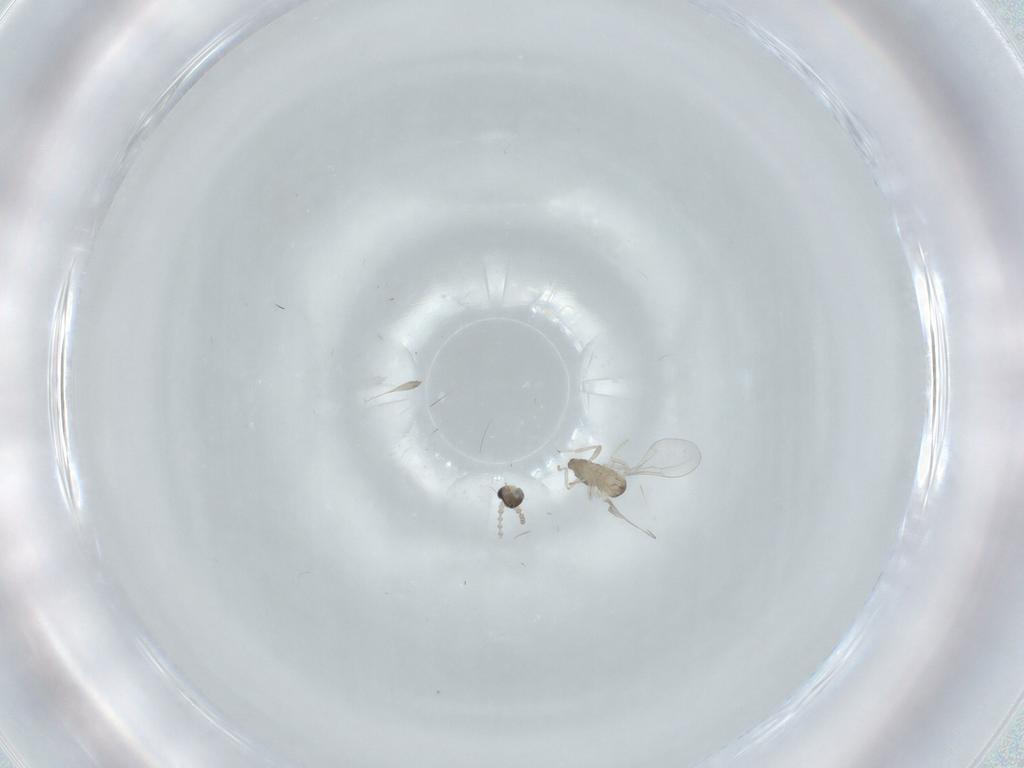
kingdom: Animalia
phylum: Arthropoda
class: Insecta
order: Diptera
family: Cecidomyiidae
